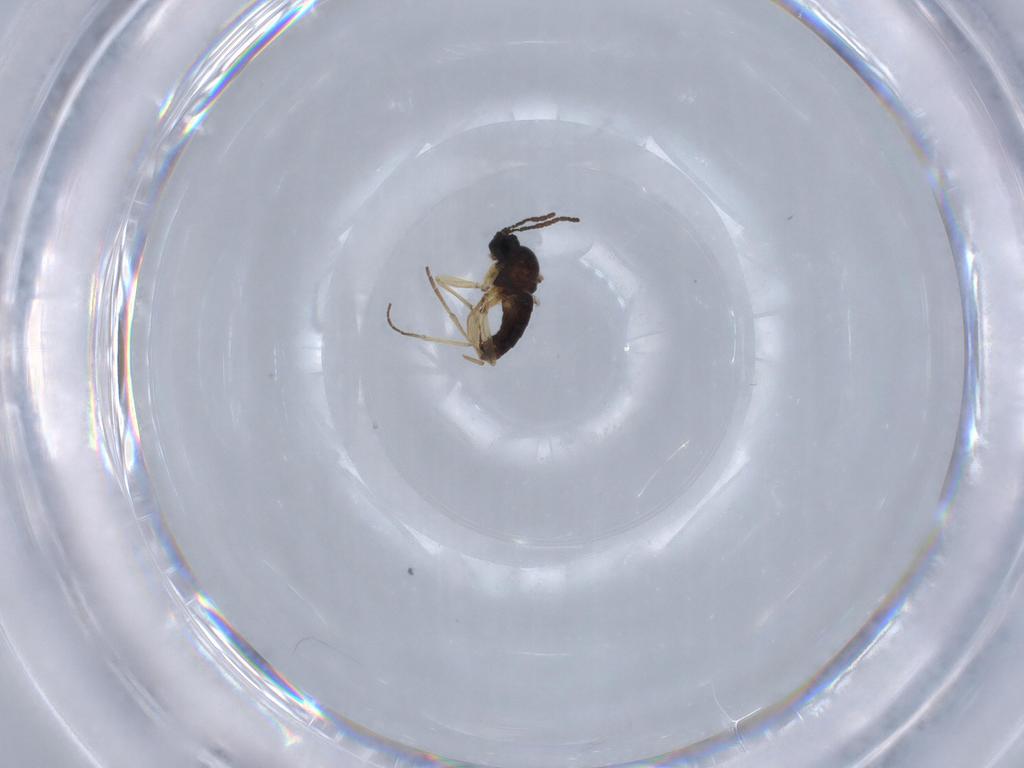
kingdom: Animalia
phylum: Arthropoda
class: Insecta
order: Diptera
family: Sciaridae
